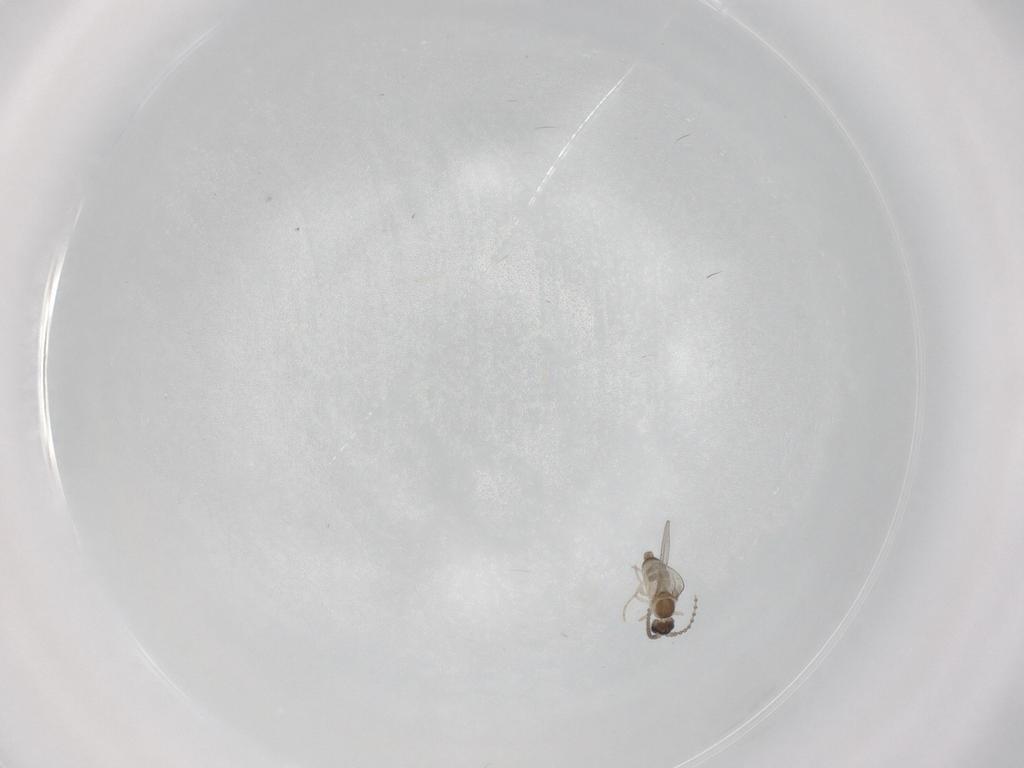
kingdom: Animalia
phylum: Arthropoda
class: Insecta
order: Diptera
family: Cecidomyiidae
